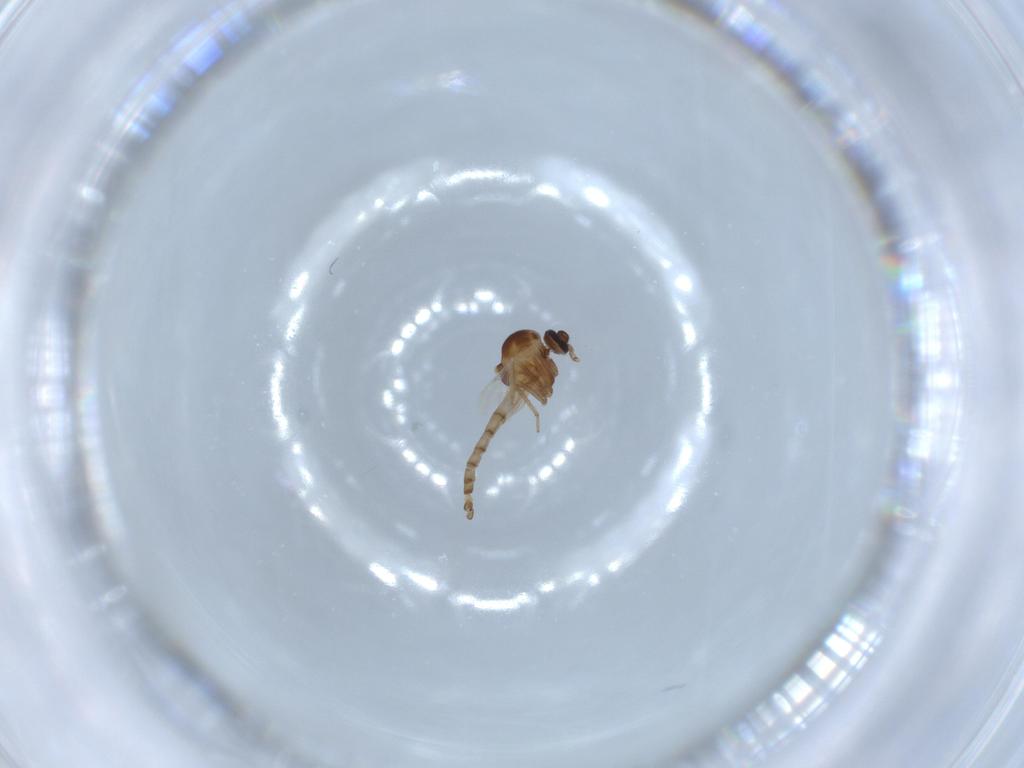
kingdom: Animalia
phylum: Arthropoda
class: Insecta
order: Diptera
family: Ceratopogonidae
